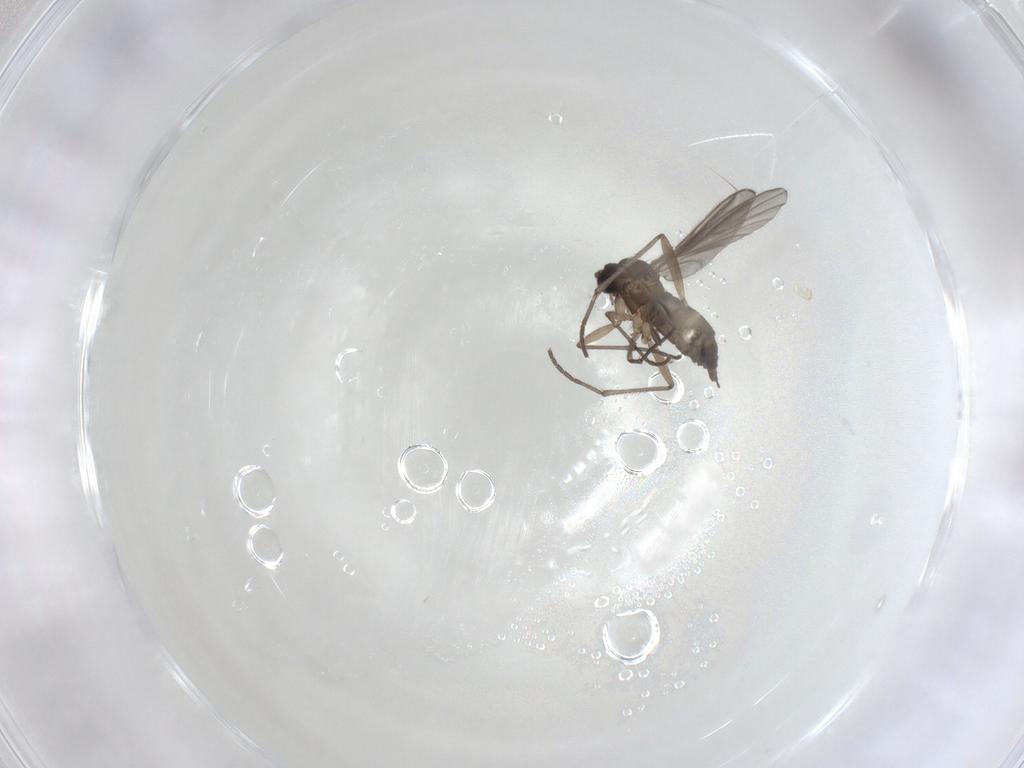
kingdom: Animalia
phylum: Arthropoda
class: Insecta
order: Diptera
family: Sciaridae
